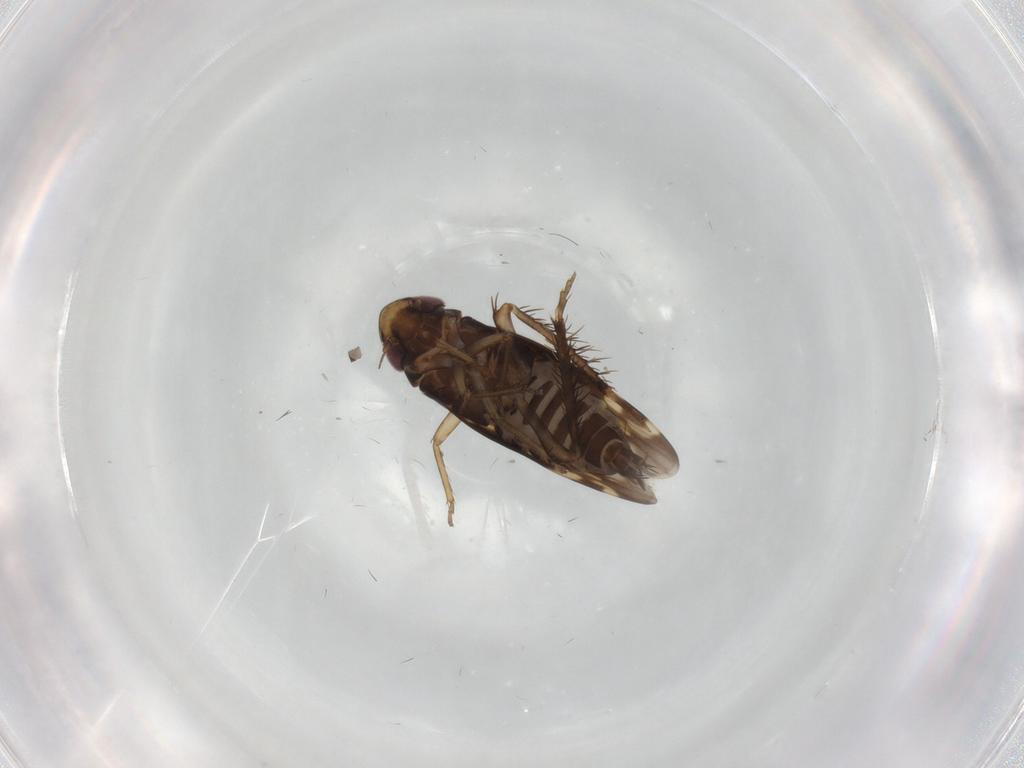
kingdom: Animalia
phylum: Arthropoda
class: Insecta
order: Hemiptera
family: Cicadellidae
